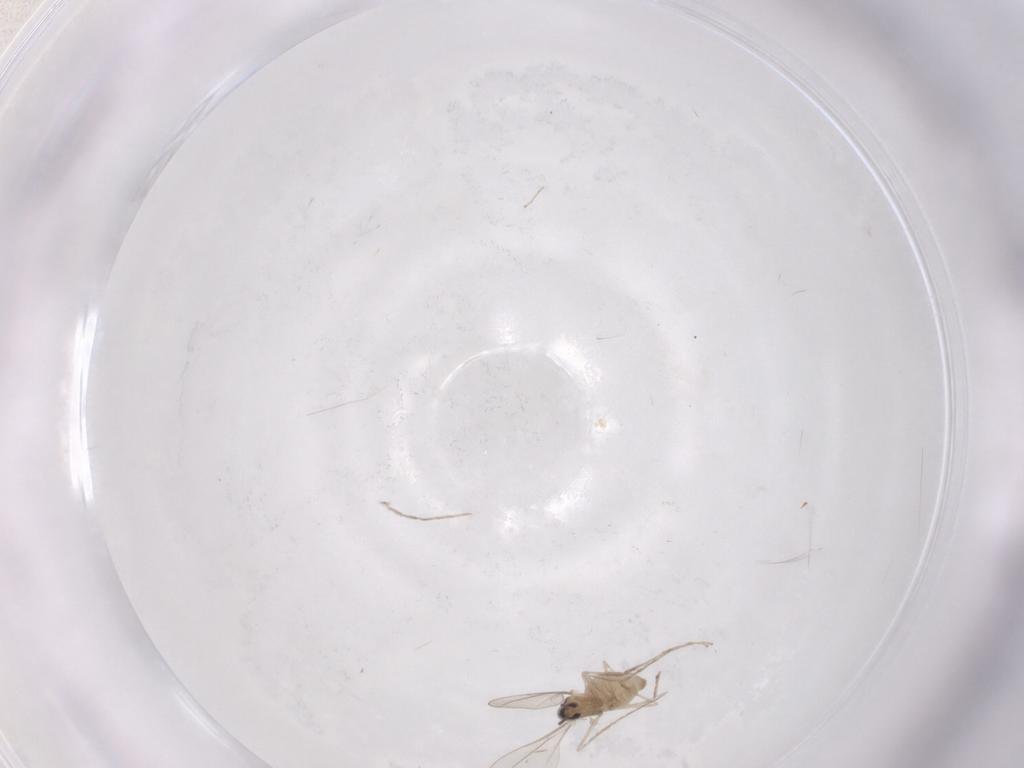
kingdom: Animalia
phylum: Arthropoda
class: Insecta
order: Diptera
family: Cecidomyiidae
